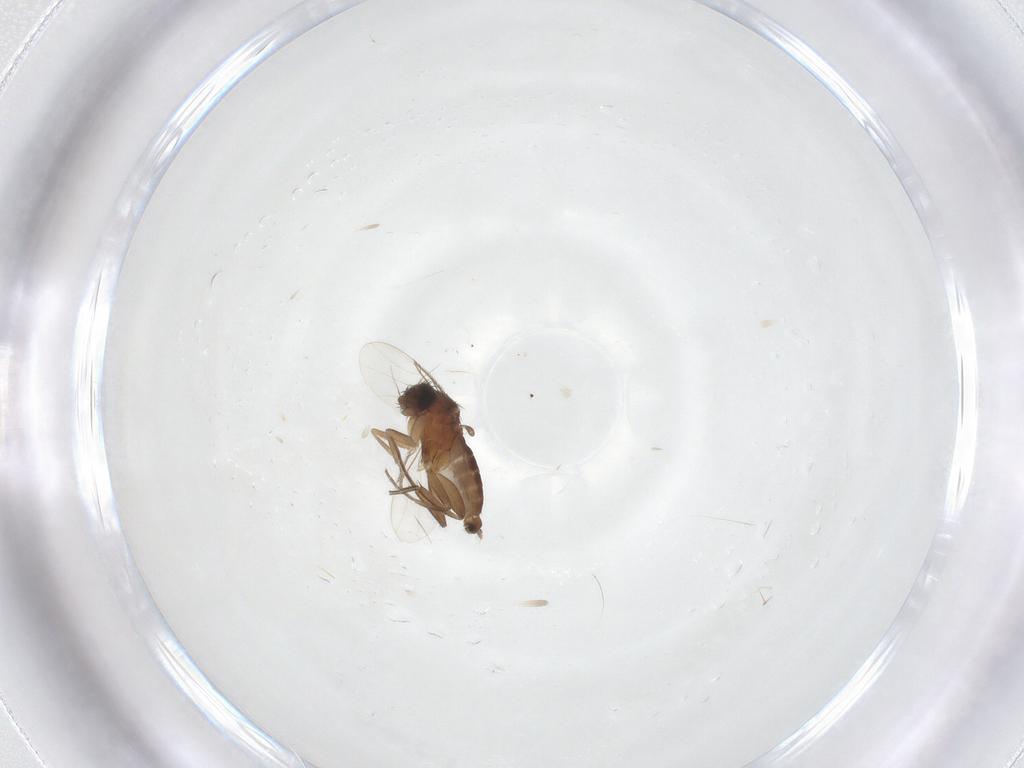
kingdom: Animalia
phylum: Arthropoda
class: Insecta
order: Diptera
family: Phoridae
